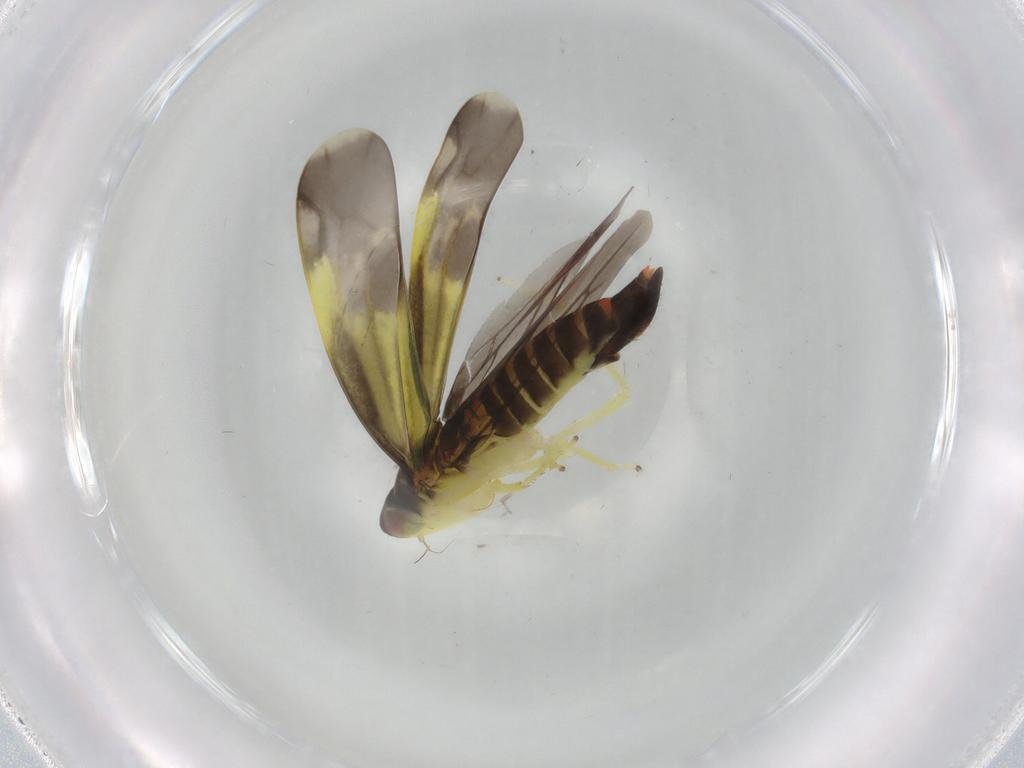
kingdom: Animalia
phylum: Arthropoda
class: Insecta
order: Hemiptera
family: Cicadellidae
